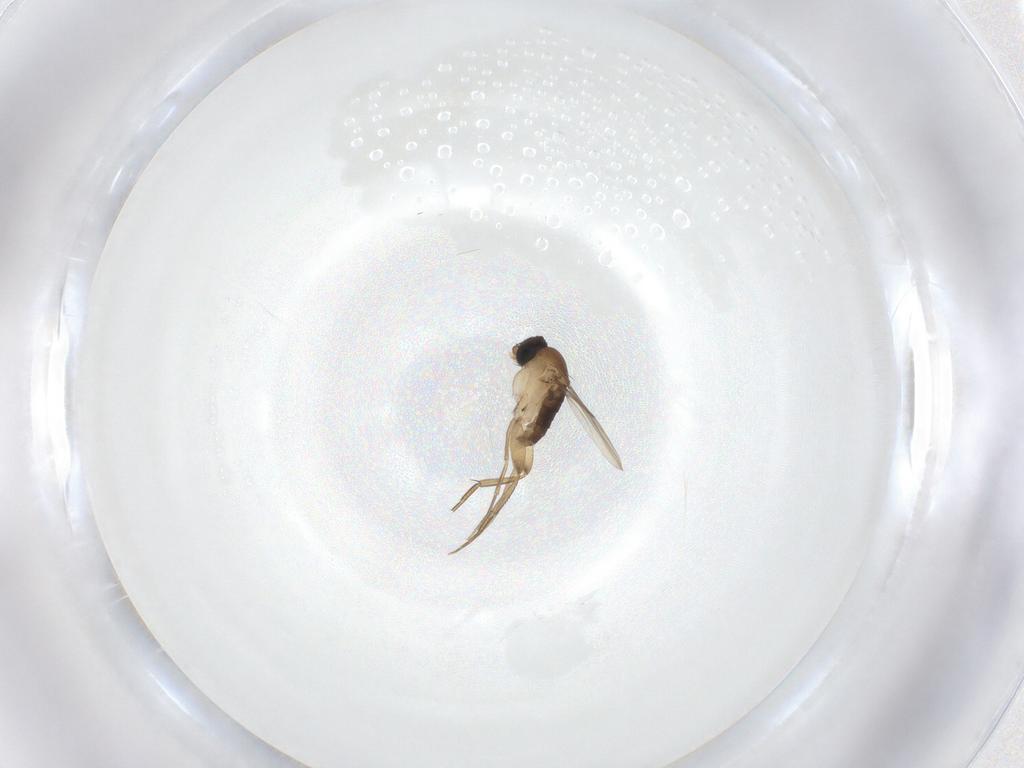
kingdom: Animalia
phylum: Arthropoda
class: Insecta
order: Diptera
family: Phoridae
